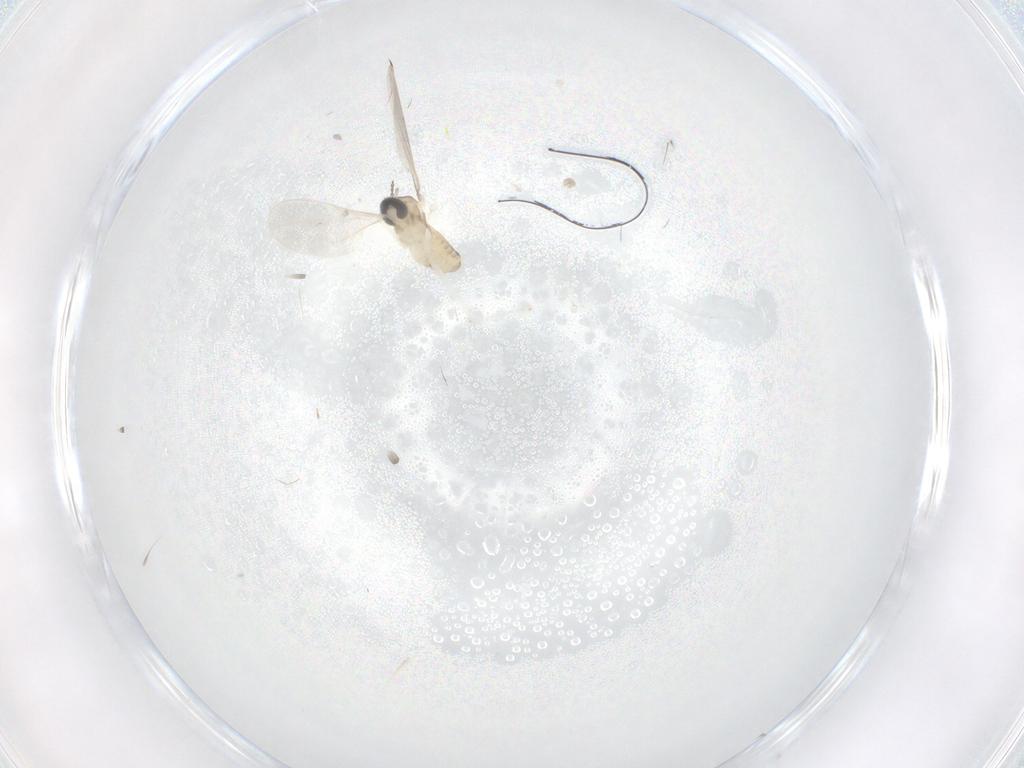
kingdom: Animalia
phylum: Arthropoda
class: Insecta
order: Diptera
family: Cecidomyiidae
